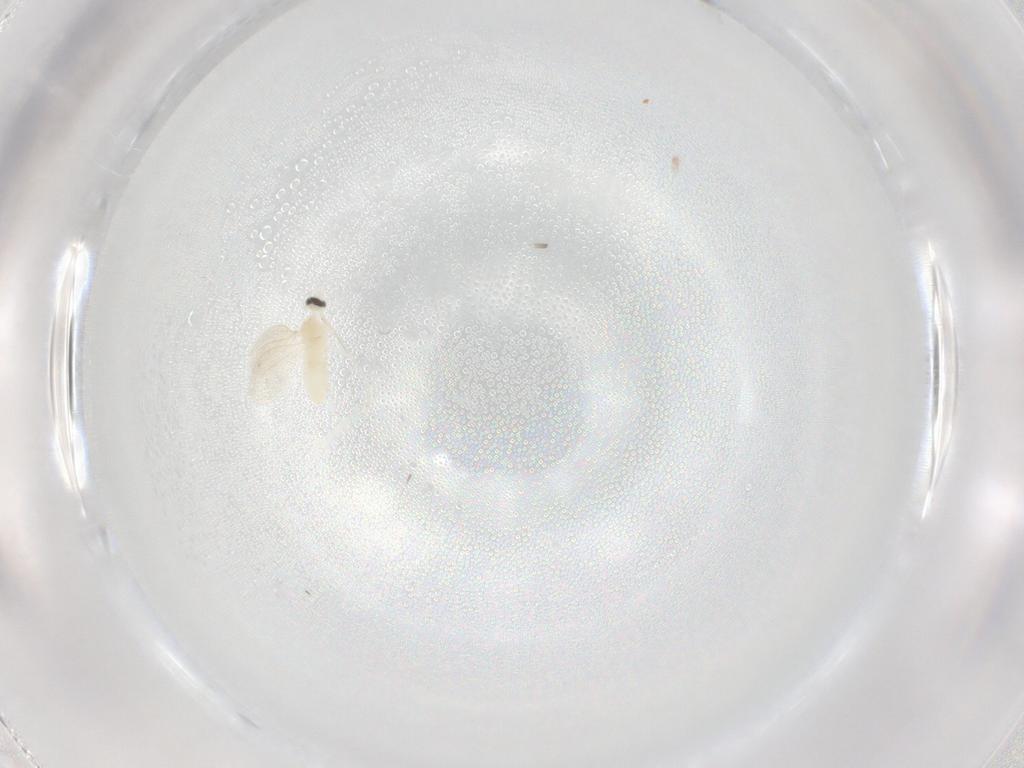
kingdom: Animalia
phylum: Arthropoda
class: Insecta
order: Diptera
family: Cecidomyiidae
